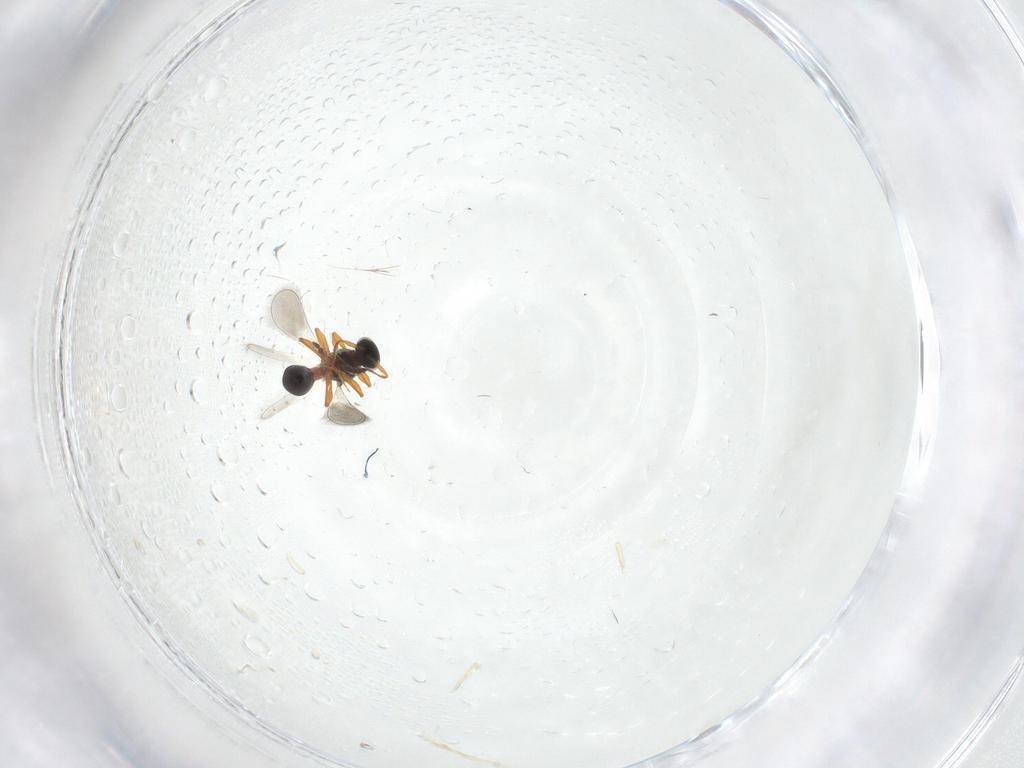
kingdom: Animalia
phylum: Arthropoda
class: Insecta
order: Hymenoptera
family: Platygastridae
